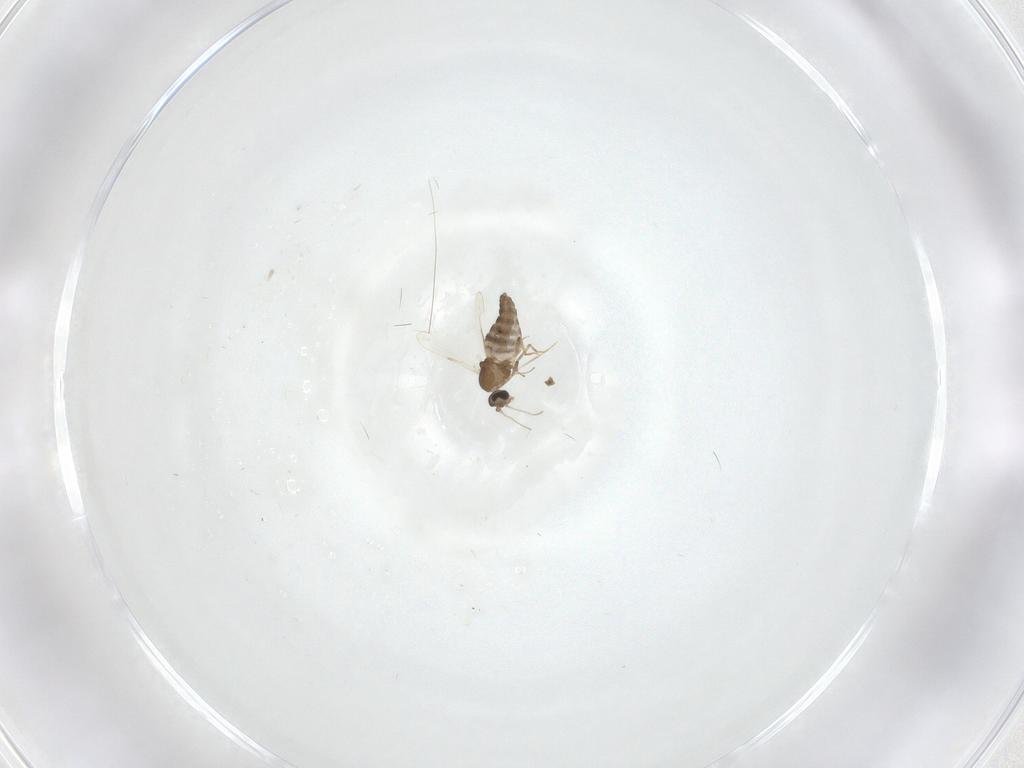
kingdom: Animalia
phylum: Arthropoda
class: Insecta
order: Diptera
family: Ceratopogonidae
